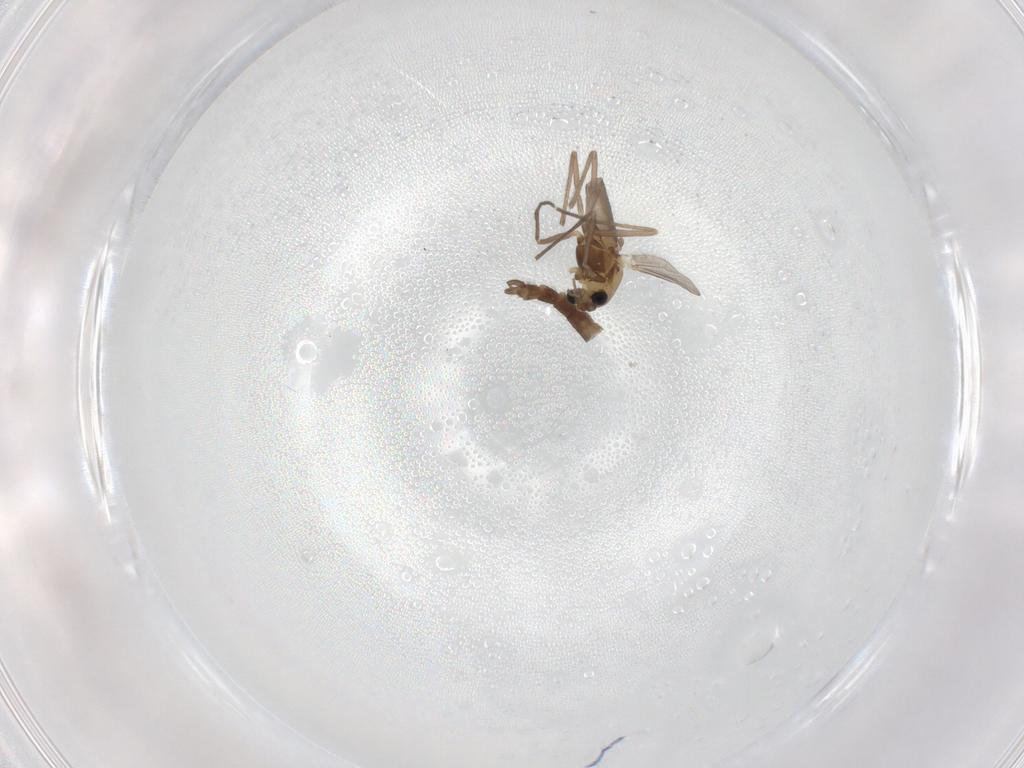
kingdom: Animalia
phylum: Arthropoda
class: Insecta
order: Diptera
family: Chironomidae
